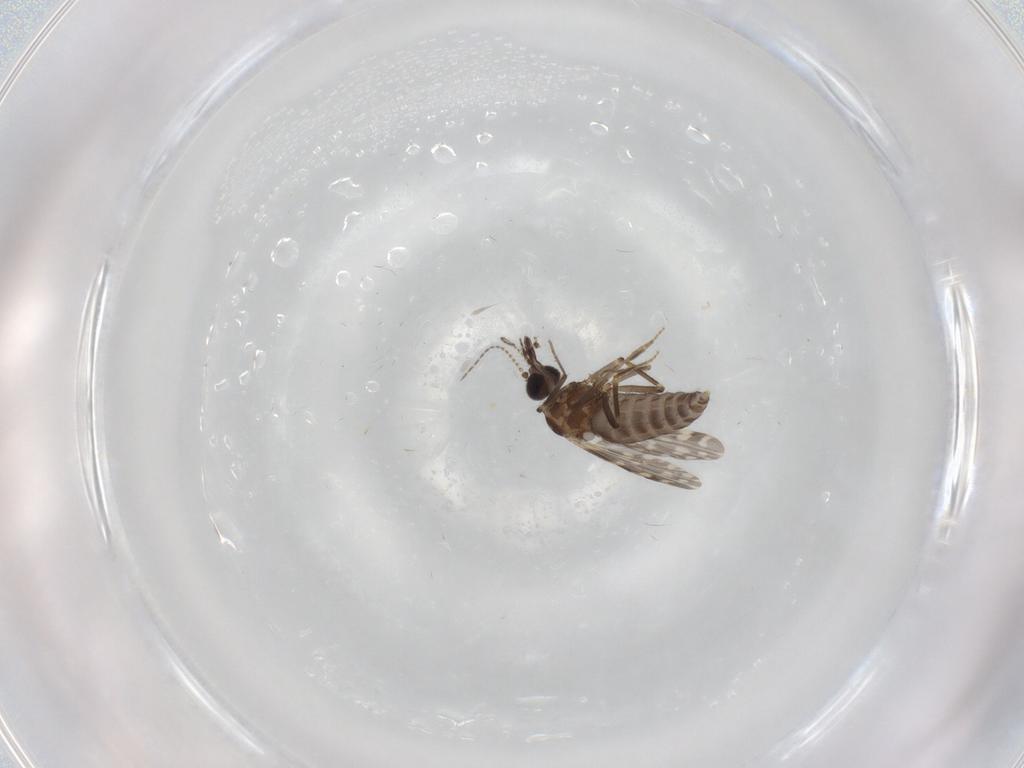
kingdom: Animalia
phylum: Arthropoda
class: Insecta
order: Diptera
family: Ceratopogonidae
